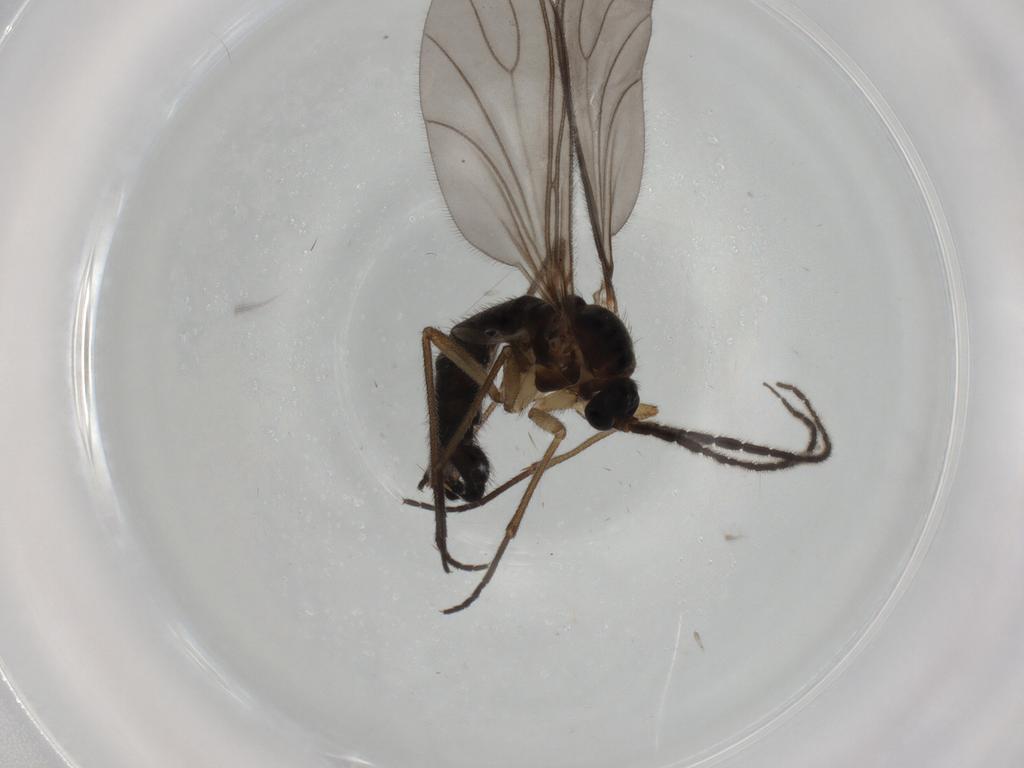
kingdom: Animalia
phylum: Arthropoda
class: Insecta
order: Diptera
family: Sciaridae
